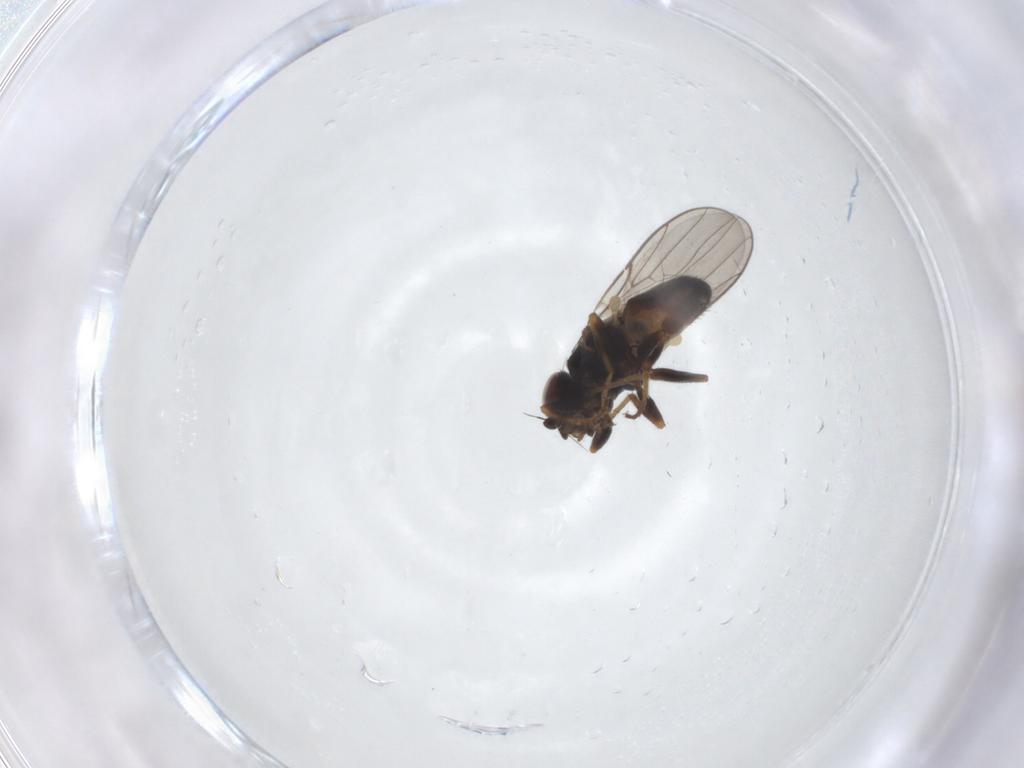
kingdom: Animalia
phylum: Arthropoda
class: Insecta
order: Diptera
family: Chloropidae
